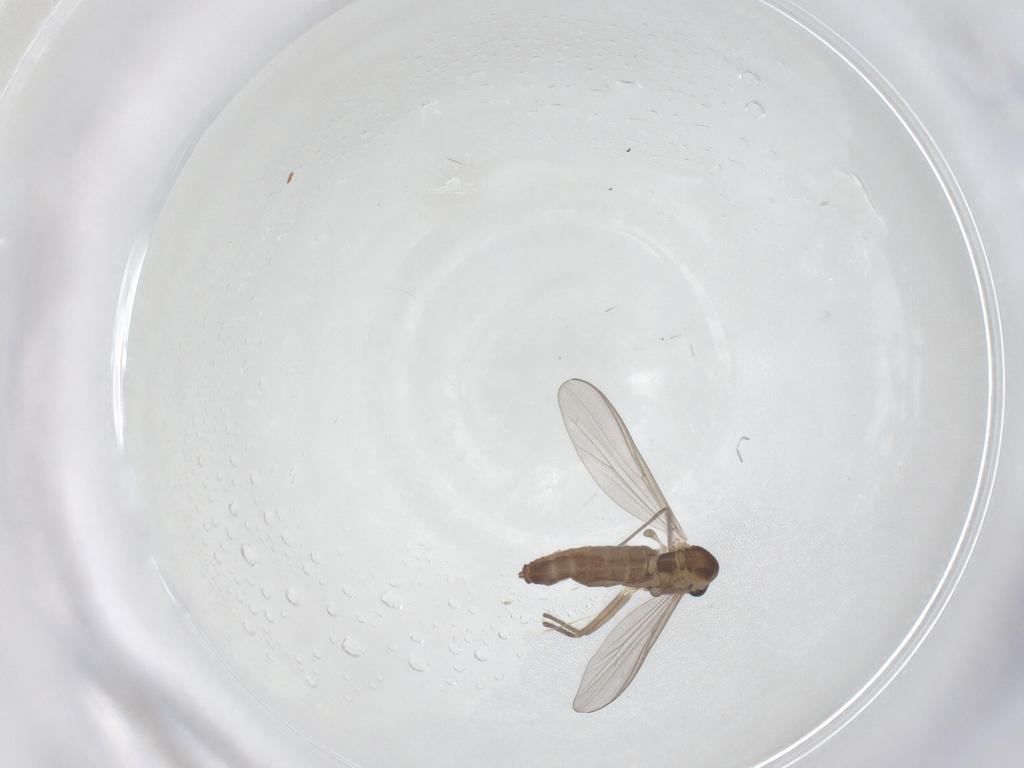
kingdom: Animalia
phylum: Arthropoda
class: Insecta
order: Diptera
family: Chironomidae
